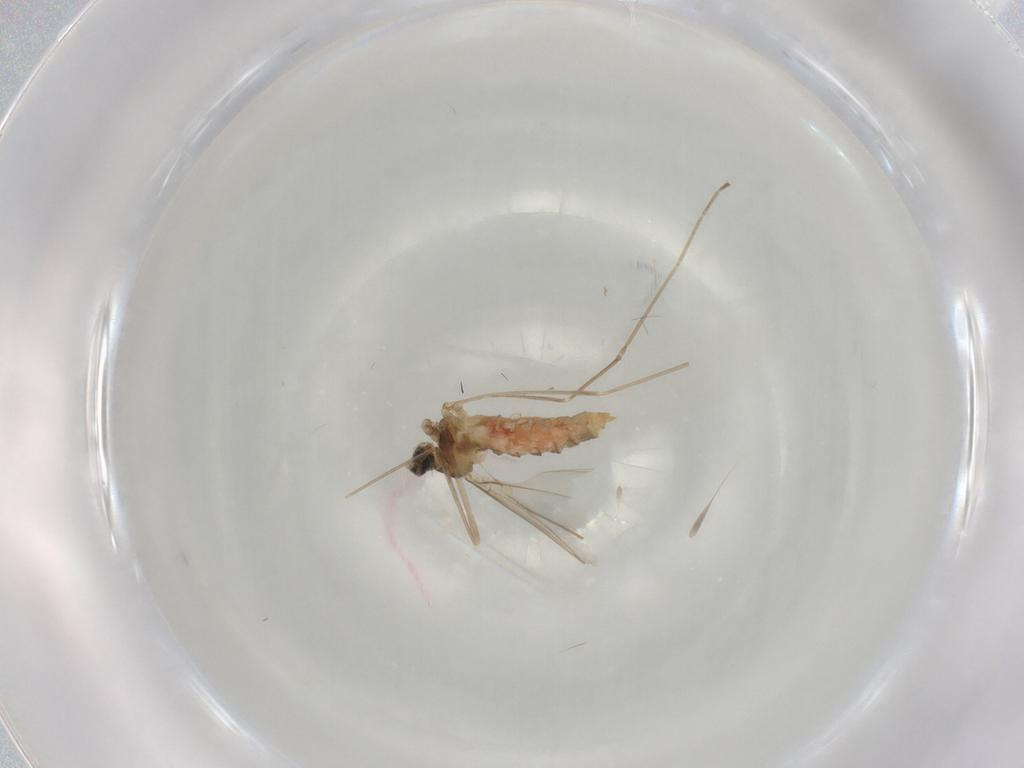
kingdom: Animalia
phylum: Arthropoda
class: Insecta
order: Diptera
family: Cecidomyiidae
